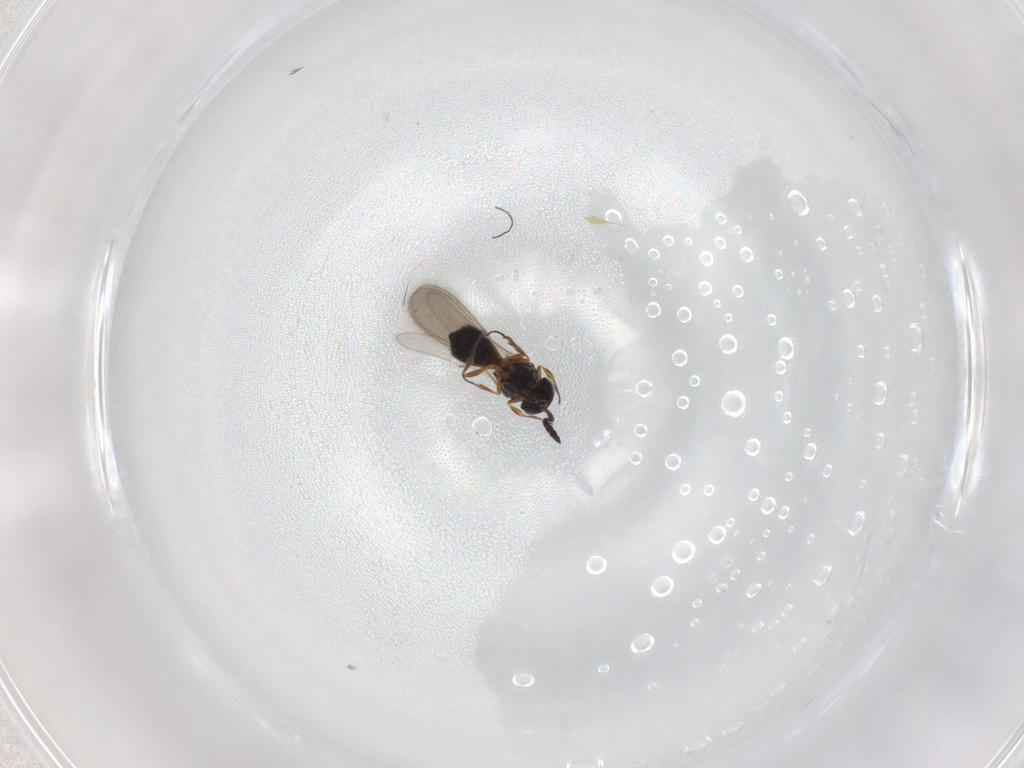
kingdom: Animalia
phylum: Arthropoda
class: Insecta
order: Hymenoptera
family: Scelionidae
